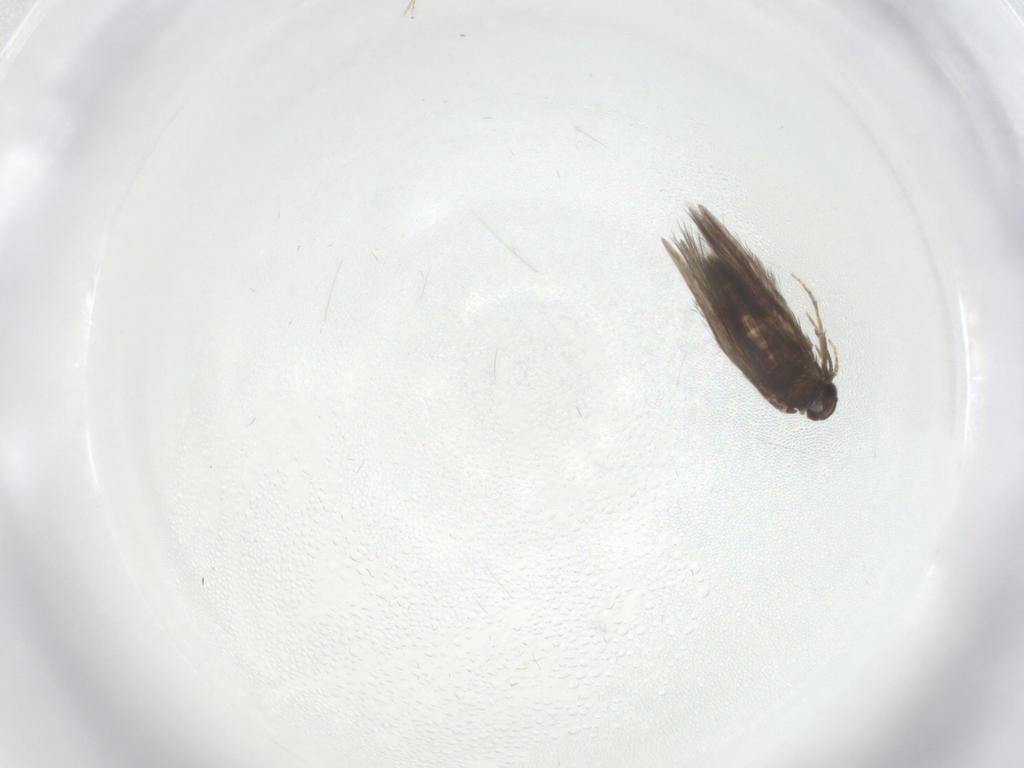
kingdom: Animalia
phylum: Arthropoda
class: Insecta
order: Trichoptera
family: Hydroptilidae
